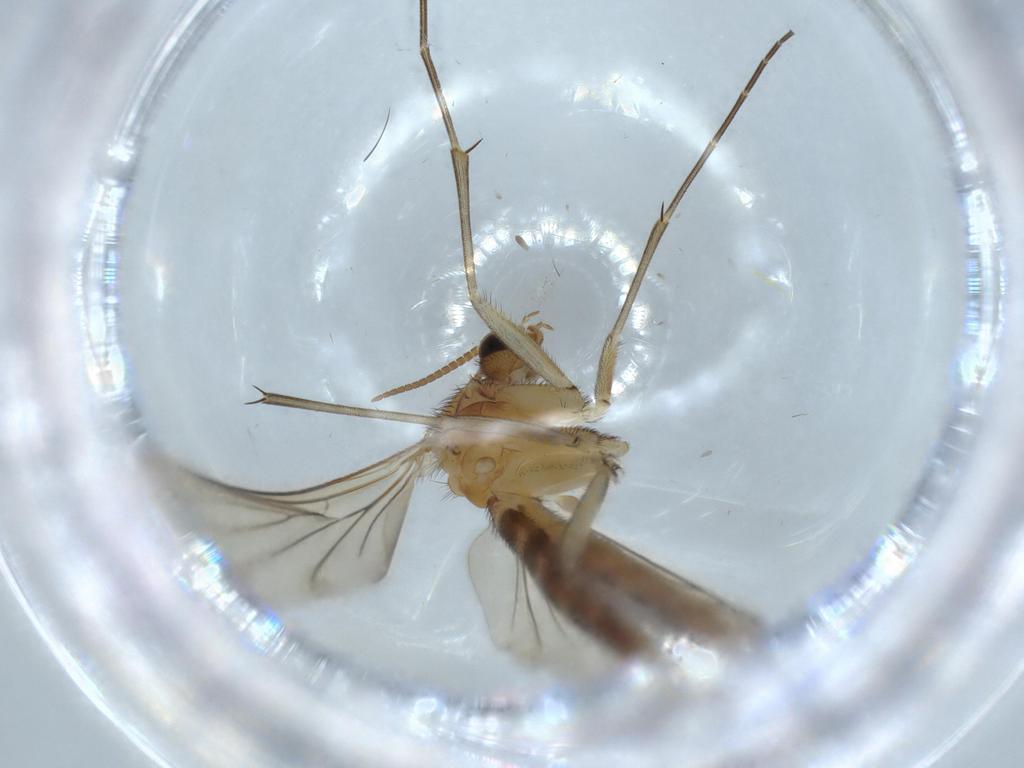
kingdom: Animalia
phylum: Arthropoda
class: Insecta
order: Diptera
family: Cecidomyiidae
